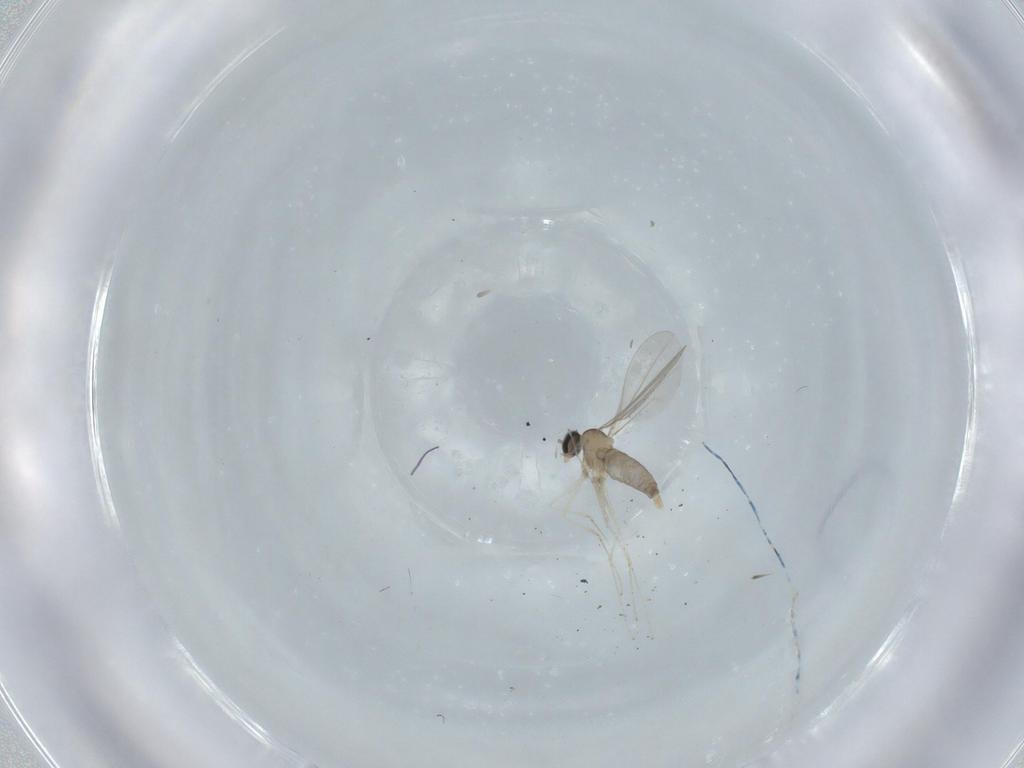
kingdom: Animalia
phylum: Arthropoda
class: Insecta
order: Diptera
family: Cecidomyiidae
